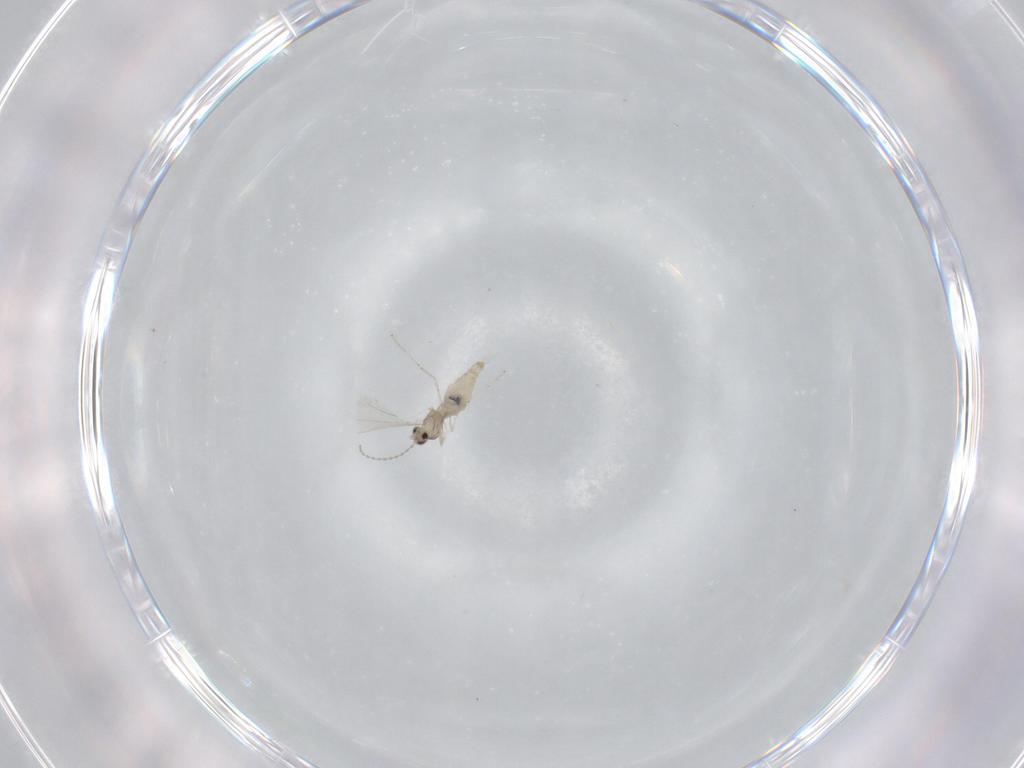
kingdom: Animalia
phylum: Arthropoda
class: Insecta
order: Diptera
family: Cecidomyiidae
